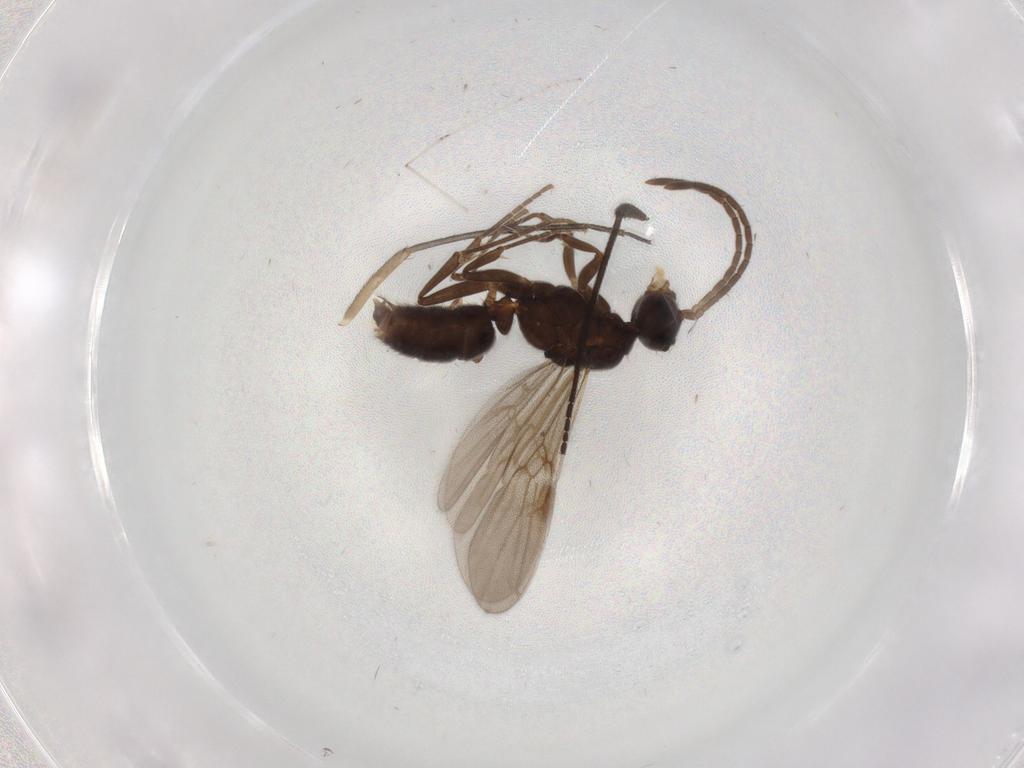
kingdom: Animalia
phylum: Arthropoda
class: Insecta
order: Hymenoptera
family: Formicidae
